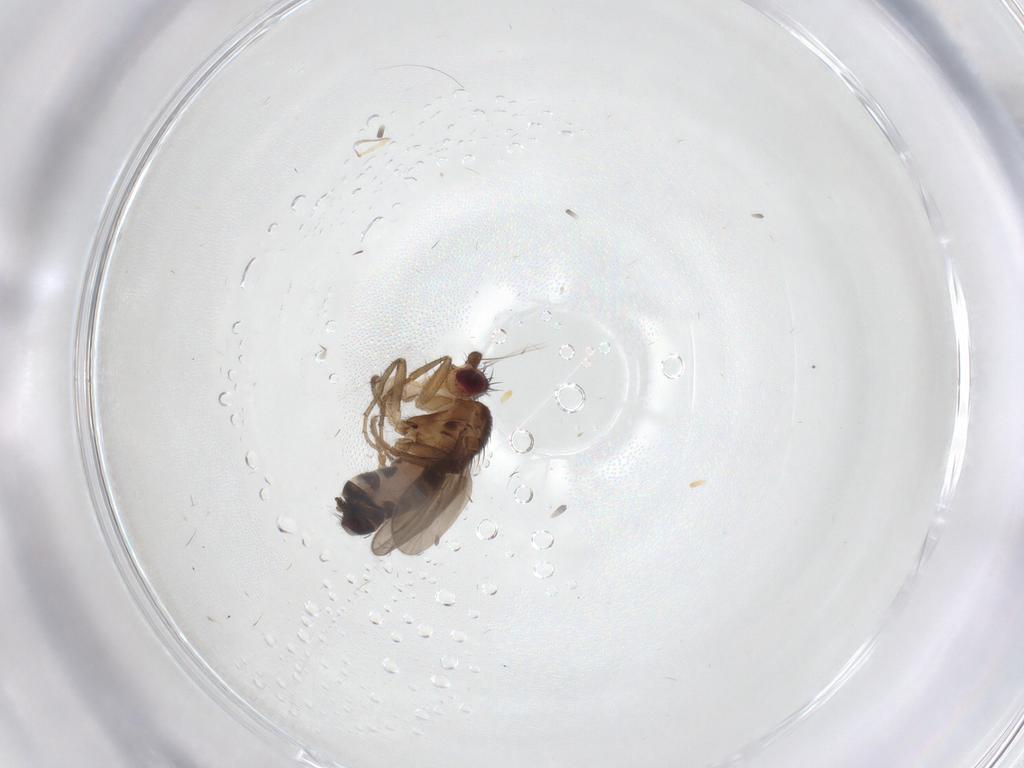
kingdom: Animalia
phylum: Arthropoda
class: Insecta
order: Diptera
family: Sphaeroceridae
